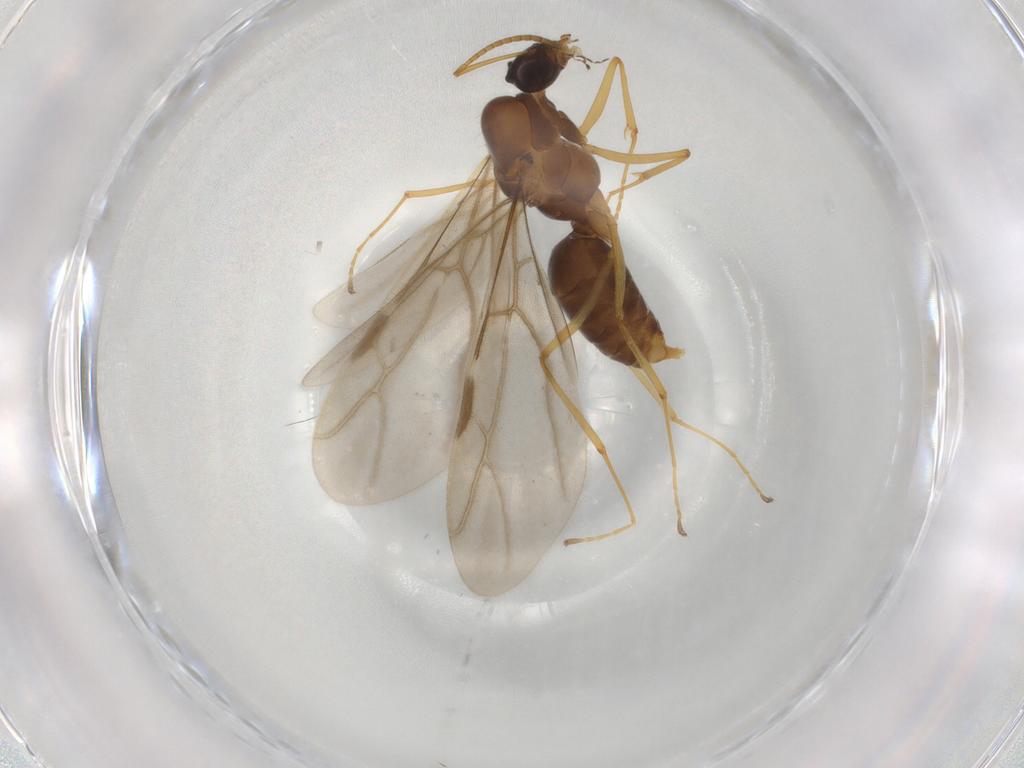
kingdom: Animalia
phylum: Arthropoda
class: Insecta
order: Hymenoptera
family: Formicidae
